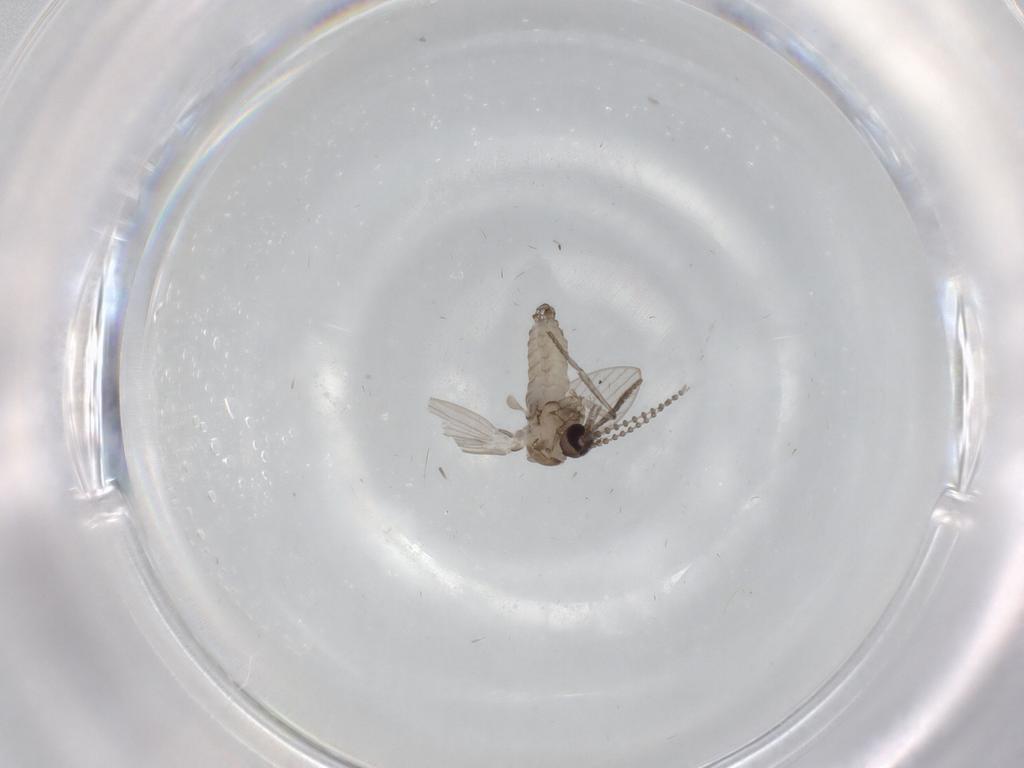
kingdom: Animalia
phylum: Arthropoda
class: Insecta
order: Diptera
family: Psychodidae
